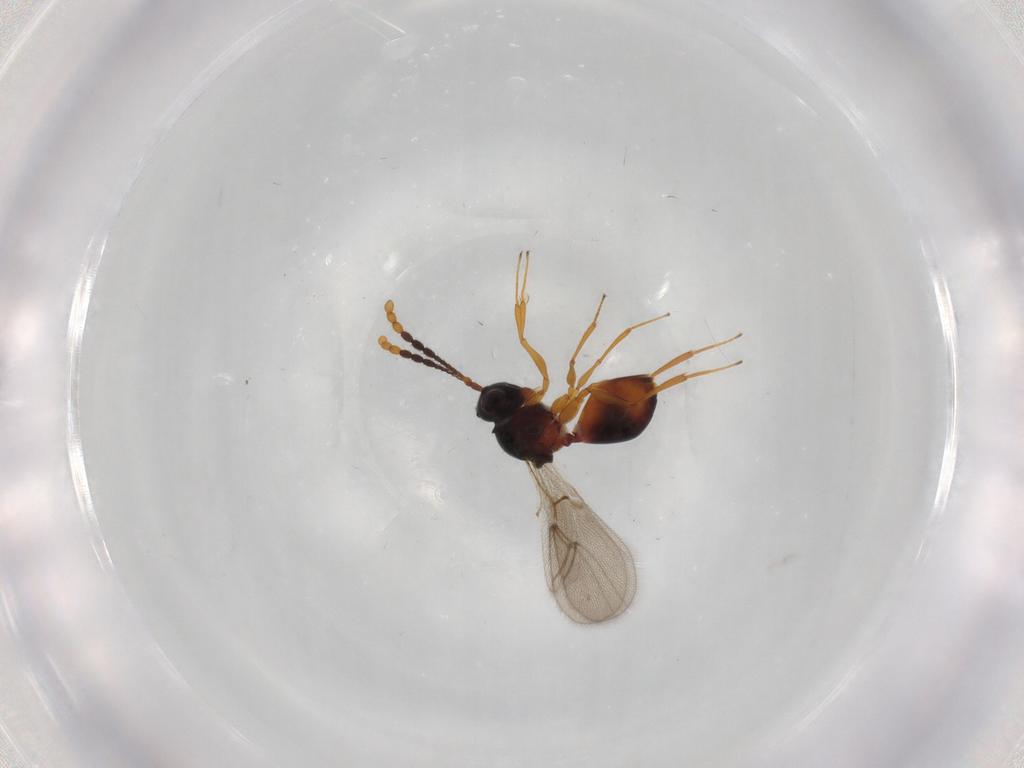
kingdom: Animalia
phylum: Arthropoda
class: Insecta
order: Hymenoptera
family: Figitidae
